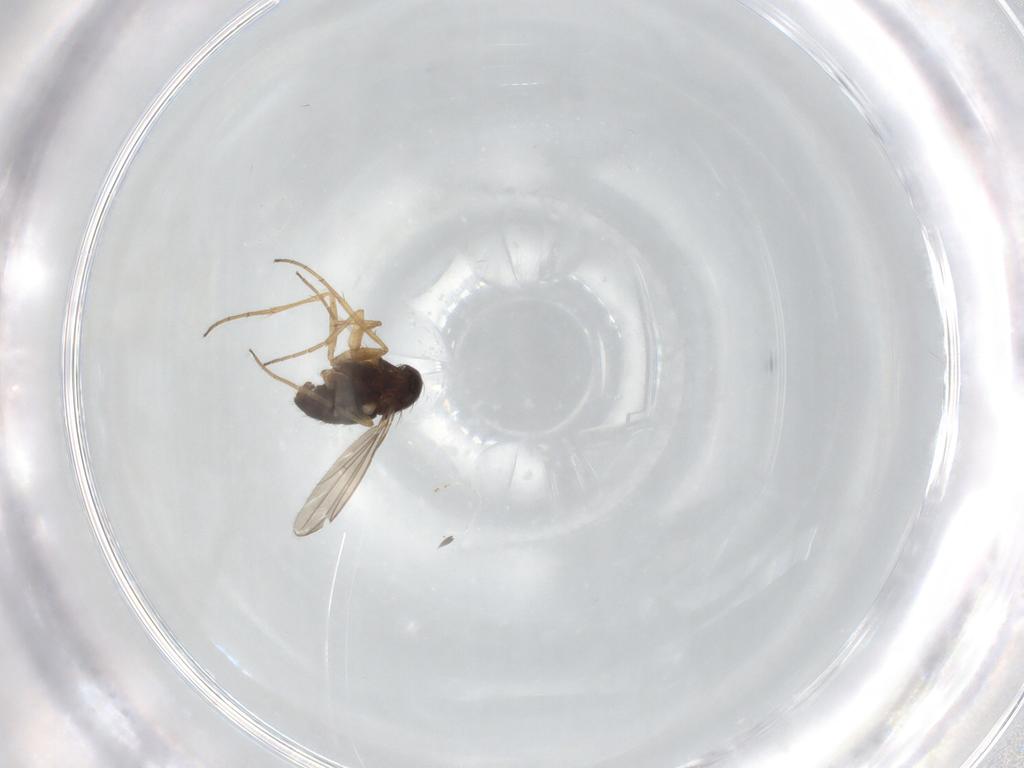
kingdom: Animalia
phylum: Arthropoda
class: Insecta
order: Diptera
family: Dolichopodidae
